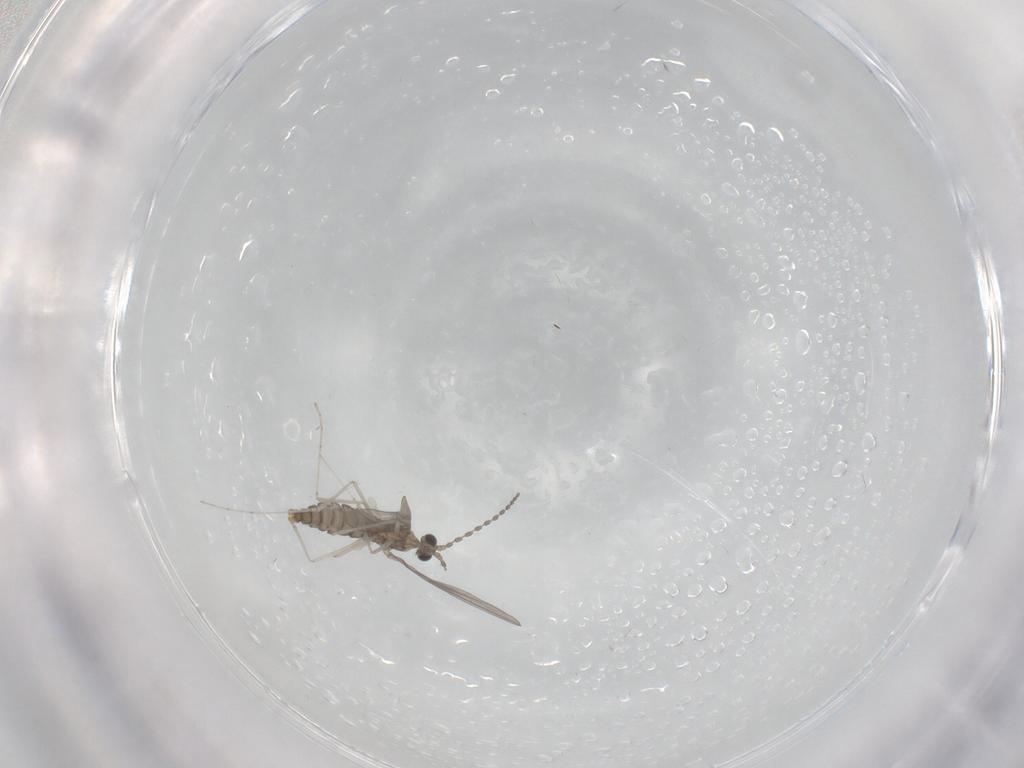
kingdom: Animalia
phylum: Arthropoda
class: Insecta
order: Diptera
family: Cecidomyiidae
